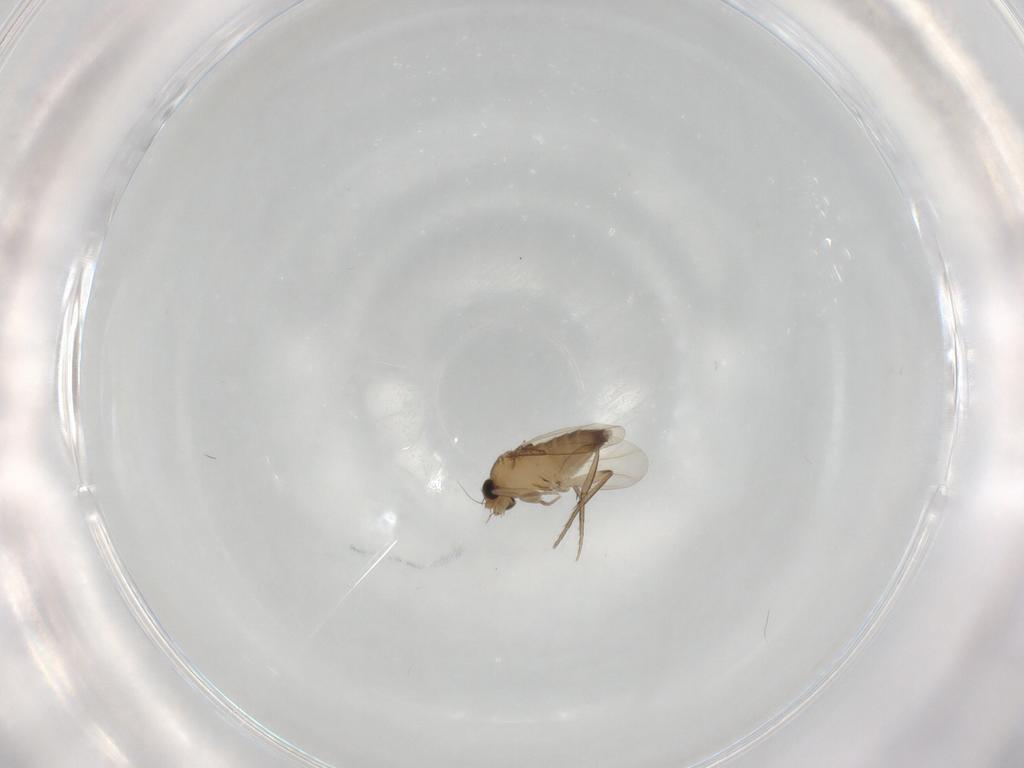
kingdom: Animalia
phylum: Arthropoda
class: Insecta
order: Diptera
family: Phoridae
